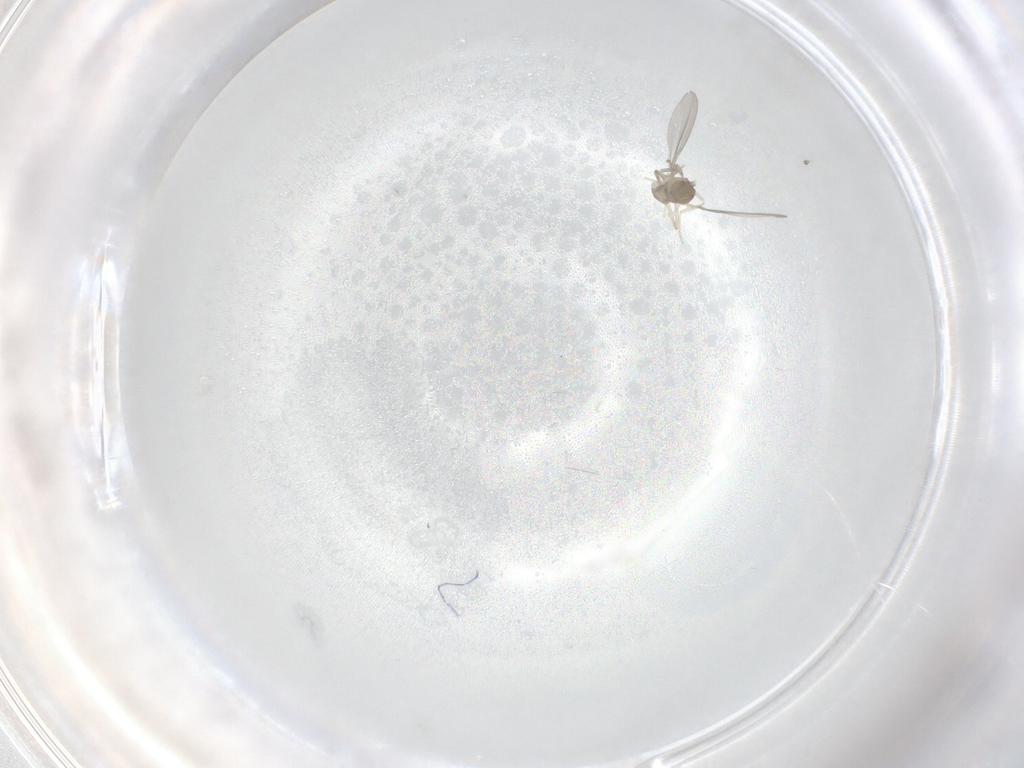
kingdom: Animalia
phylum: Arthropoda
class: Insecta
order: Diptera
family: Cecidomyiidae
